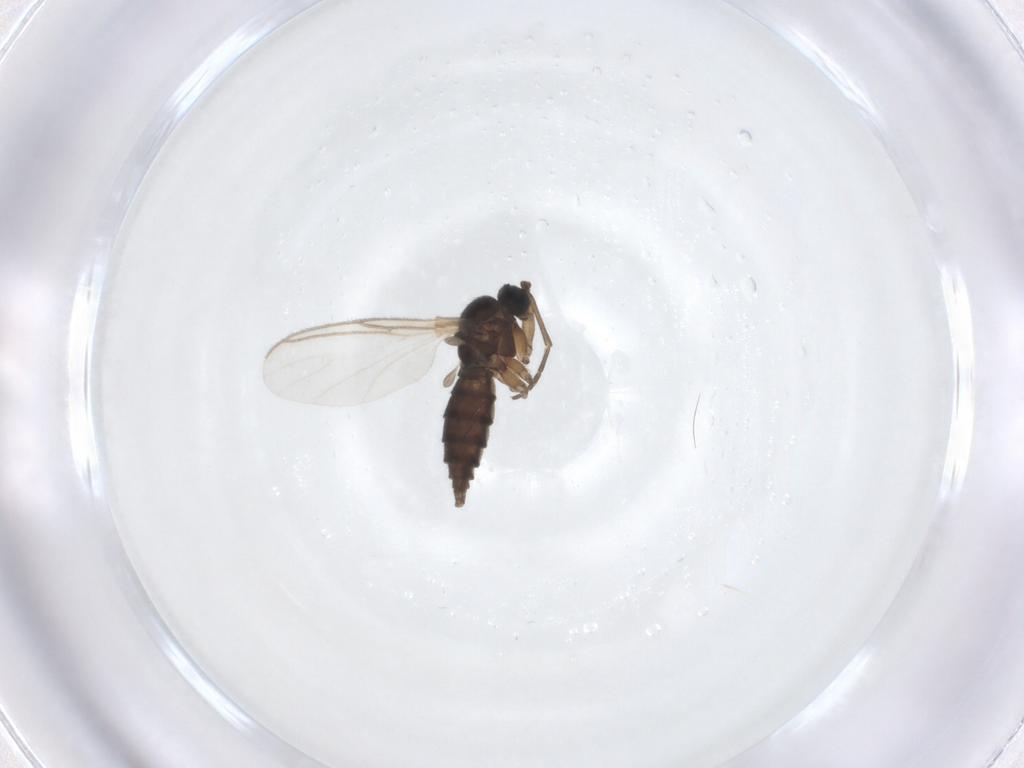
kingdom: Animalia
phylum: Arthropoda
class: Insecta
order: Diptera
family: Sciaridae
